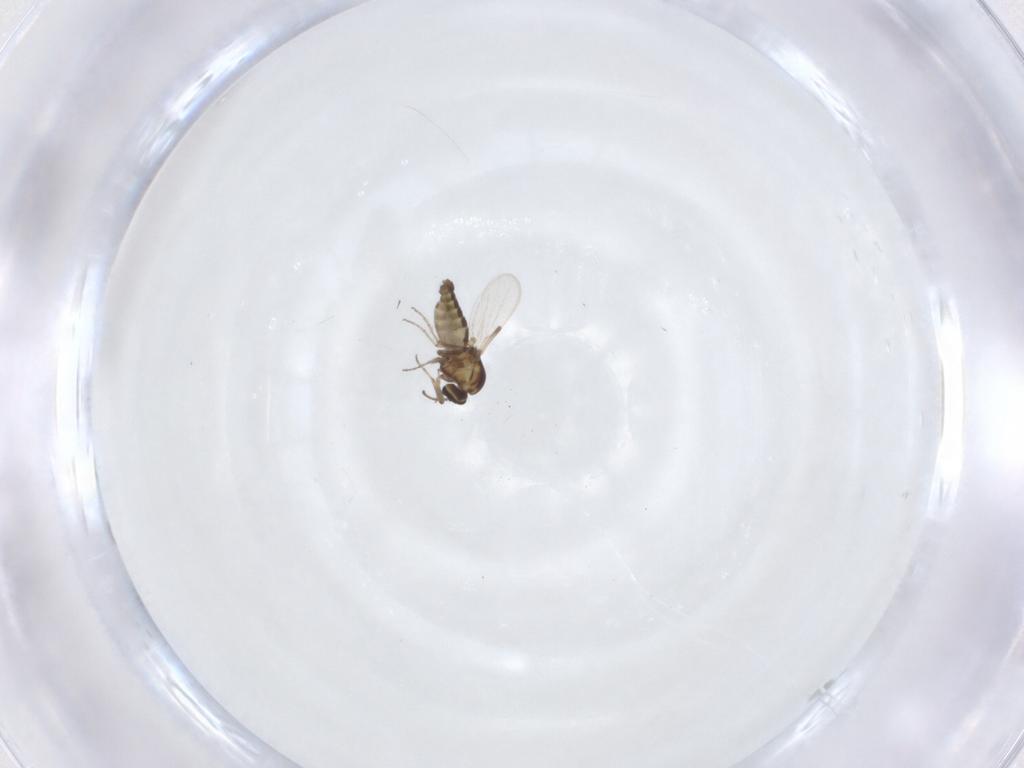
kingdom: Animalia
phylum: Arthropoda
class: Insecta
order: Diptera
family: Ceratopogonidae
